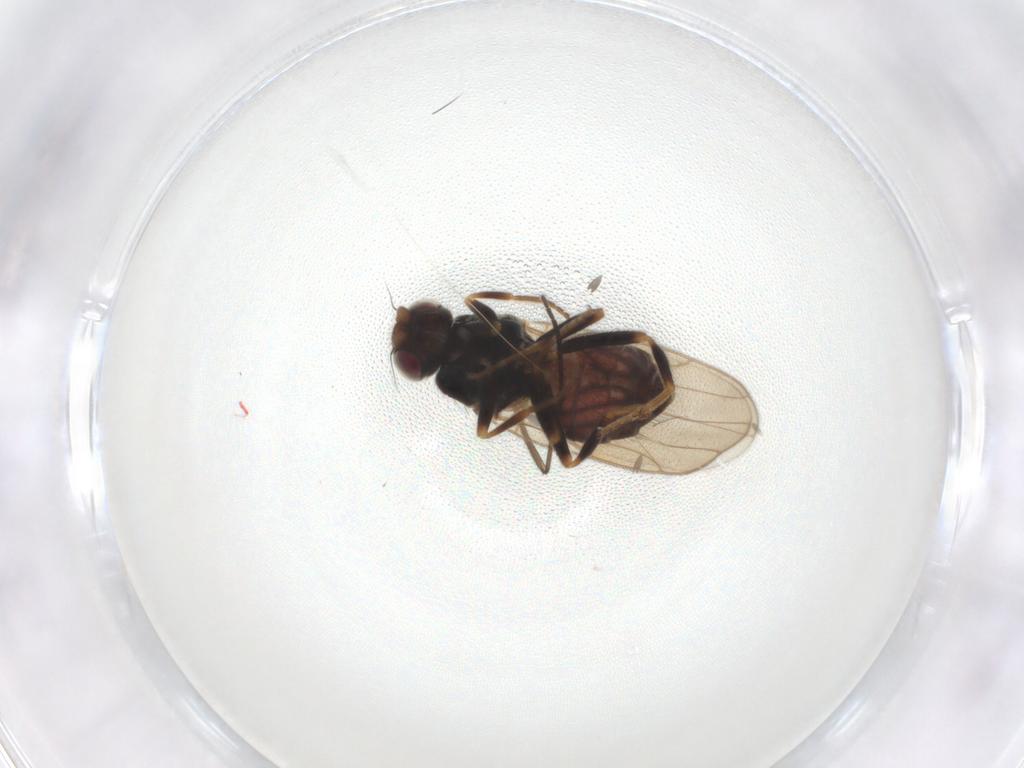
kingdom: Animalia
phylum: Arthropoda
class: Insecta
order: Diptera
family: Chloropidae
